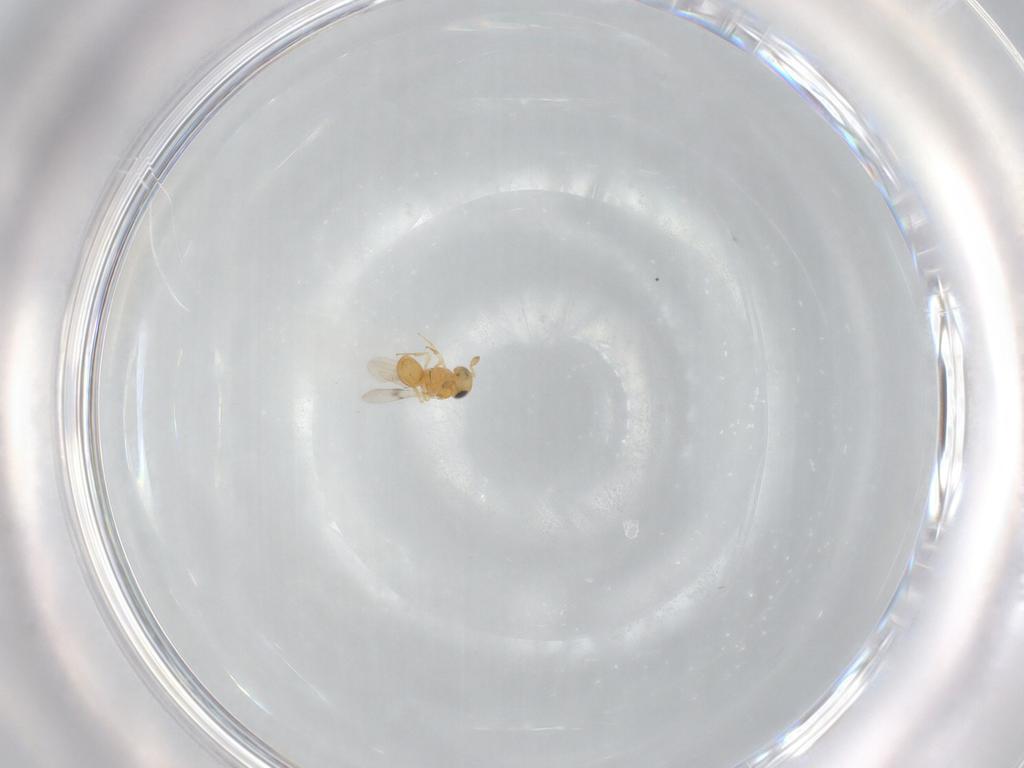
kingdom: Animalia
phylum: Arthropoda
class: Insecta
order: Hymenoptera
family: Scelionidae
